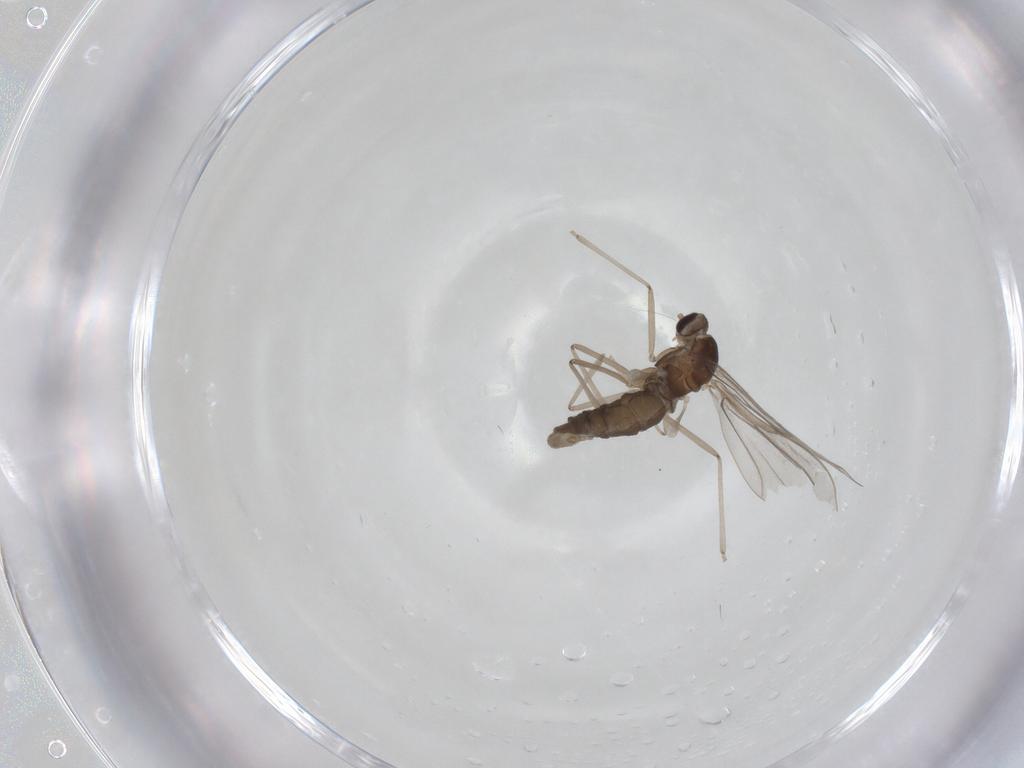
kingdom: Animalia
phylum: Arthropoda
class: Insecta
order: Diptera
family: Cecidomyiidae
